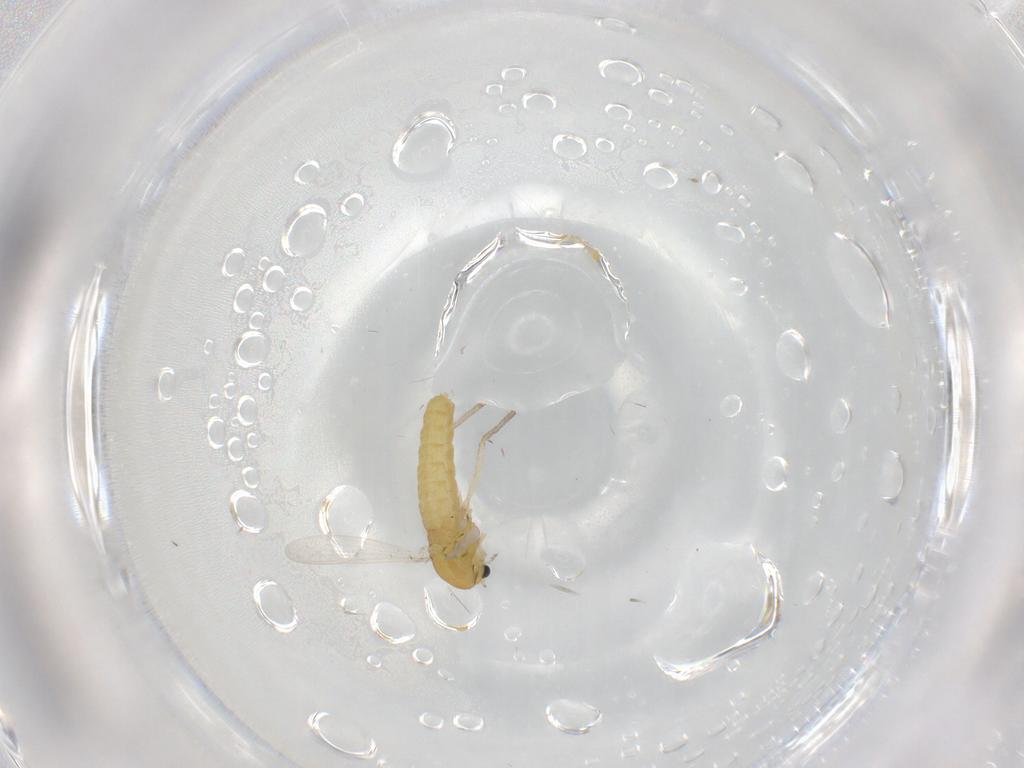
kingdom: Animalia
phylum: Arthropoda
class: Insecta
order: Diptera
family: Chironomidae
